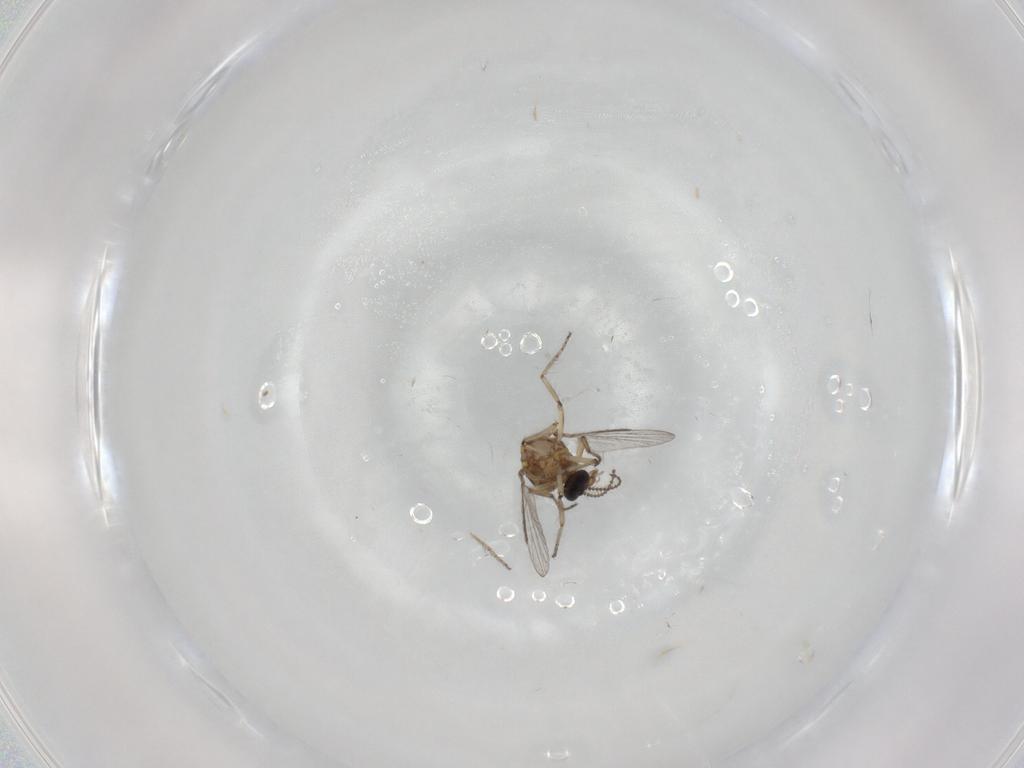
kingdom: Animalia
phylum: Arthropoda
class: Insecta
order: Diptera
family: Ceratopogonidae
